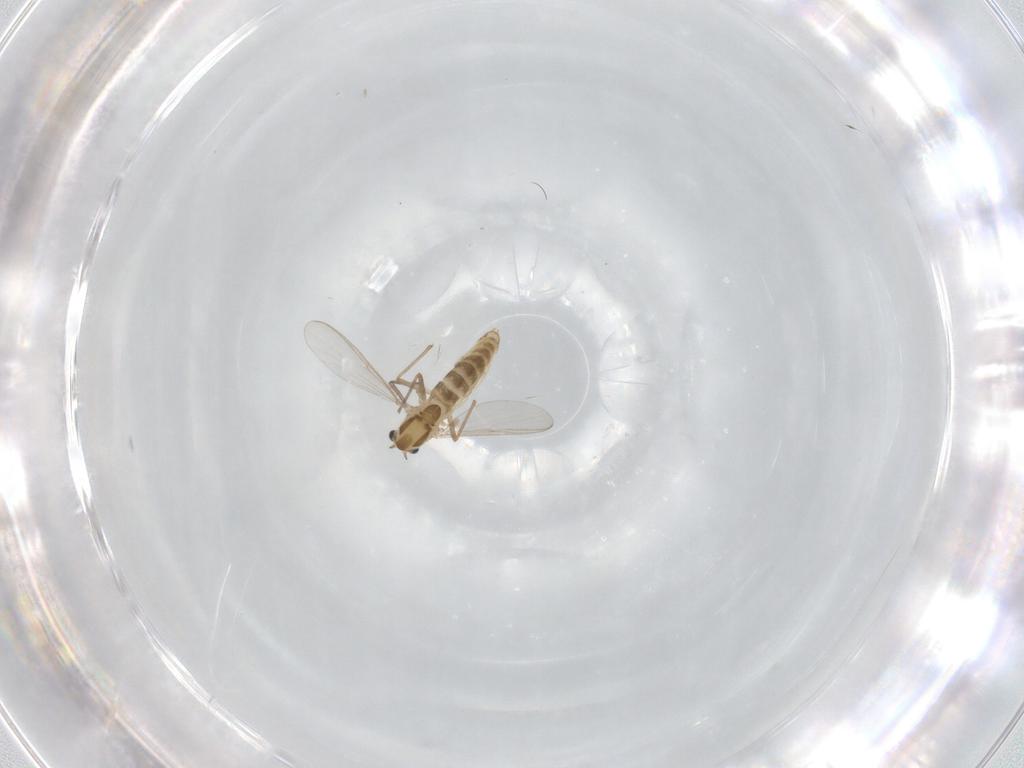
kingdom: Animalia
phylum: Arthropoda
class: Insecta
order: Diptera
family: Chironomidae
